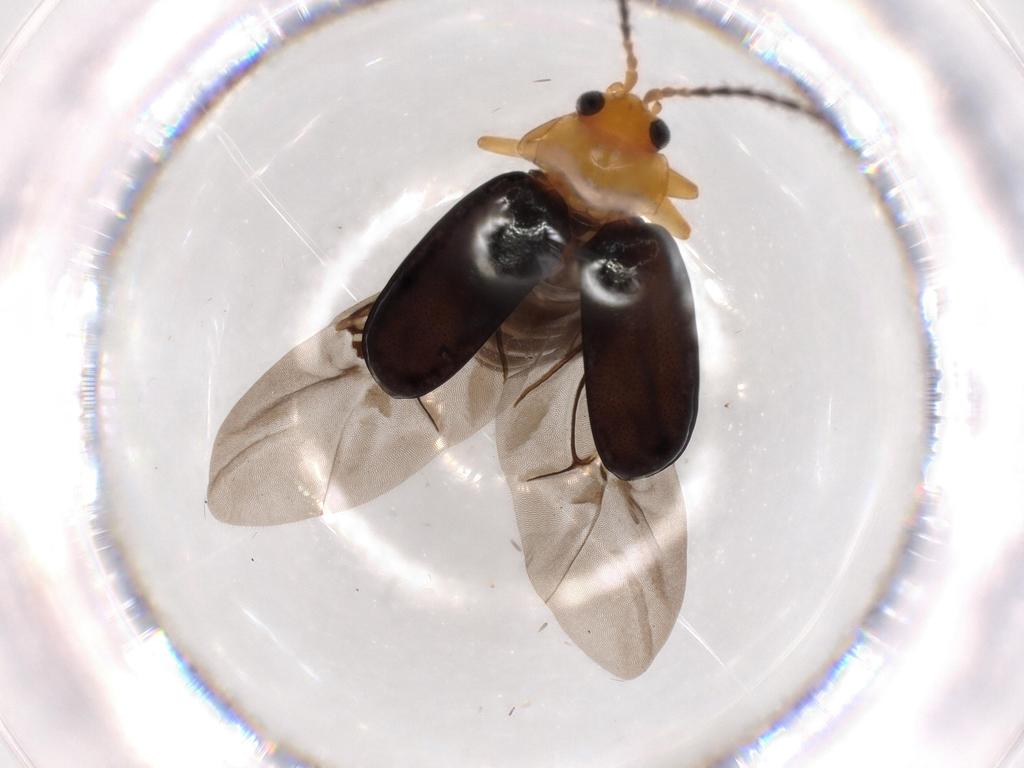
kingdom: Animalia
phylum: Arthropoda
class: Insecta
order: Coleoptera
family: Chrysomelidae
